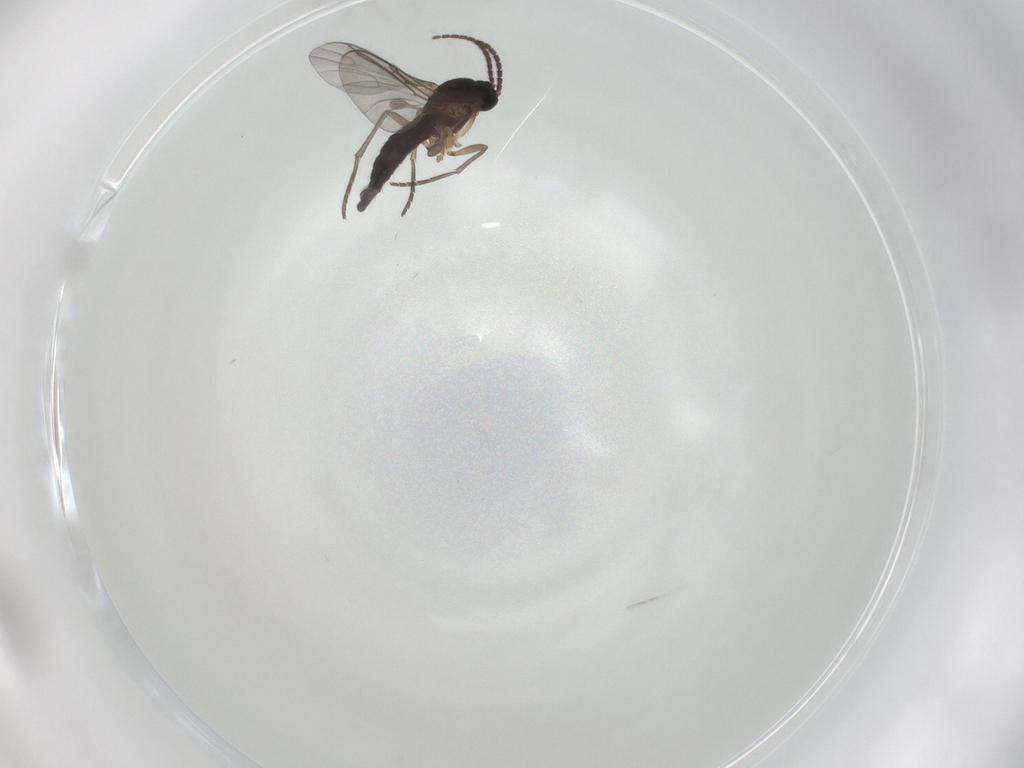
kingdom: Animalia
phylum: Arthropoda
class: Insecta
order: Diptera
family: Sciaridae
